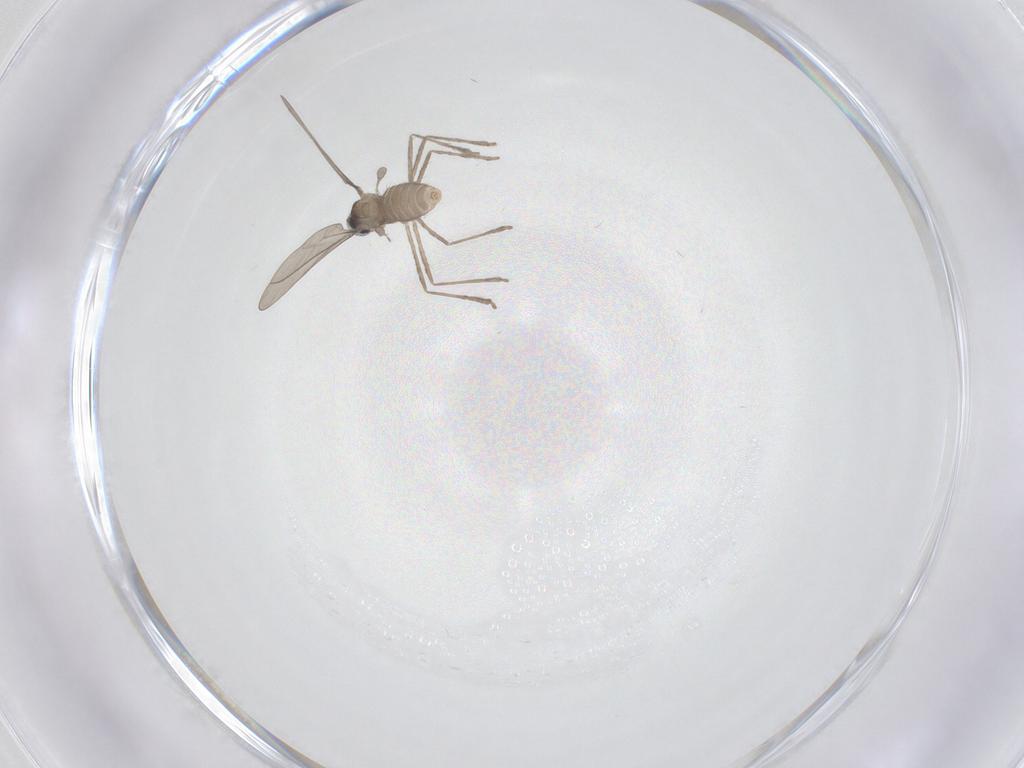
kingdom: Animalia
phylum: Arthropoda
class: Insecta
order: Diptera
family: Cecidomyiidae
